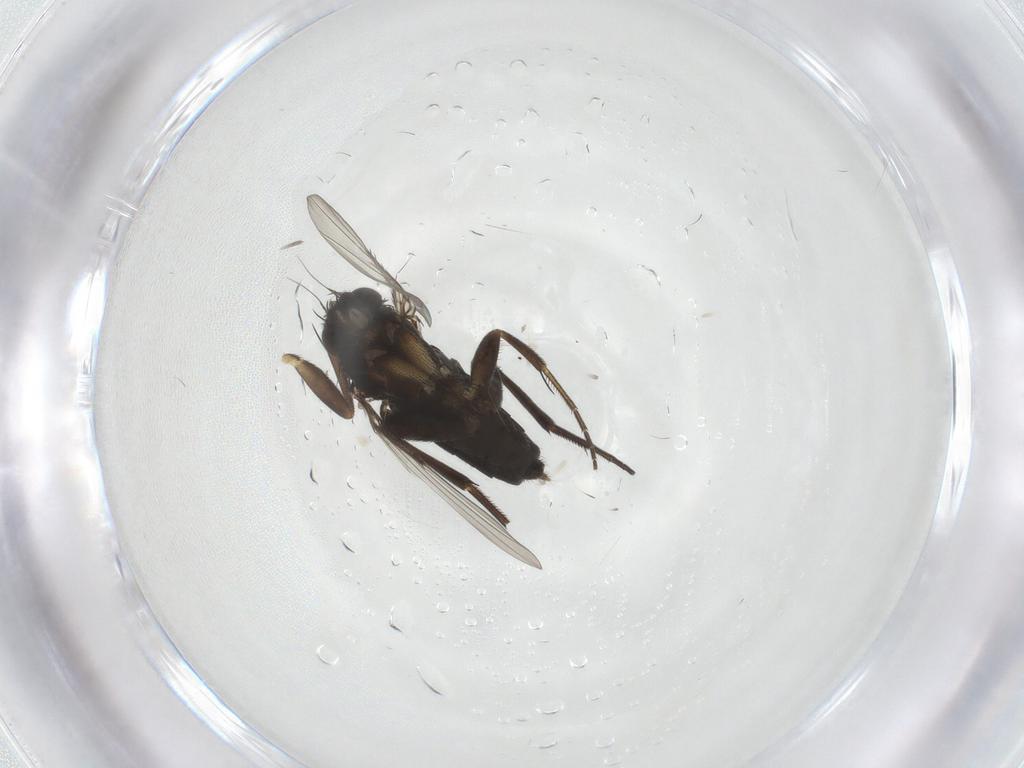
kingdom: Animalia
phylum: Arthropoda
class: Insecta
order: Diptera
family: Phoridae
